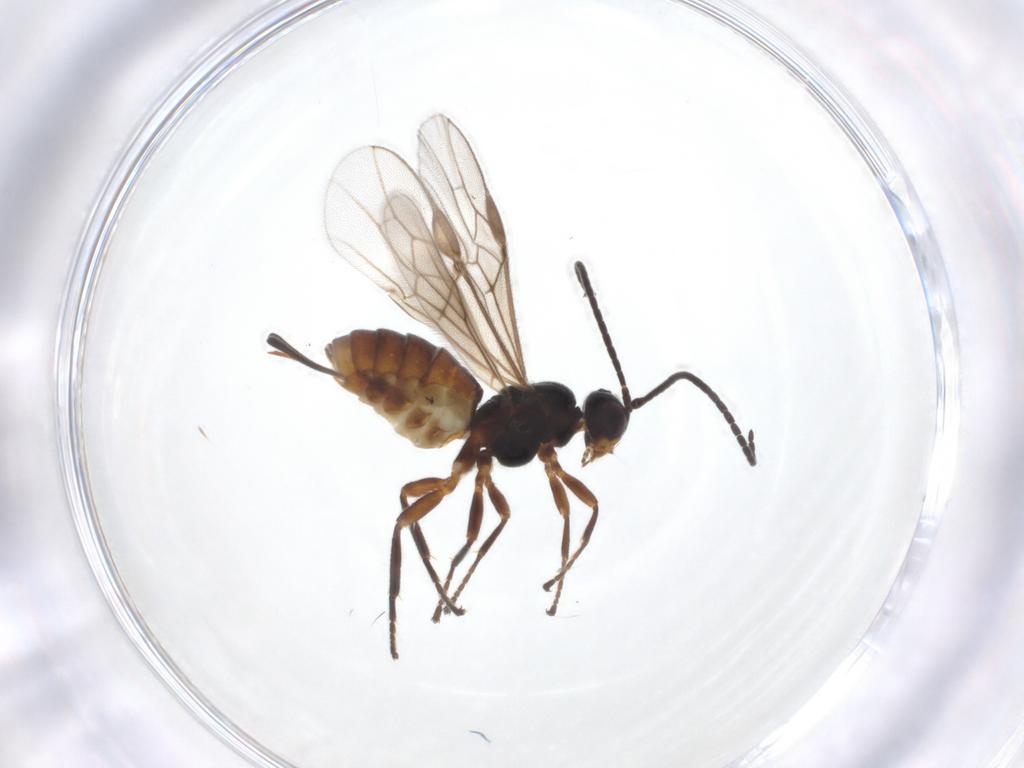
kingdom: Animalia
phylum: Arthropoda
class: Insecta
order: Hymenoptera
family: Braconidae
